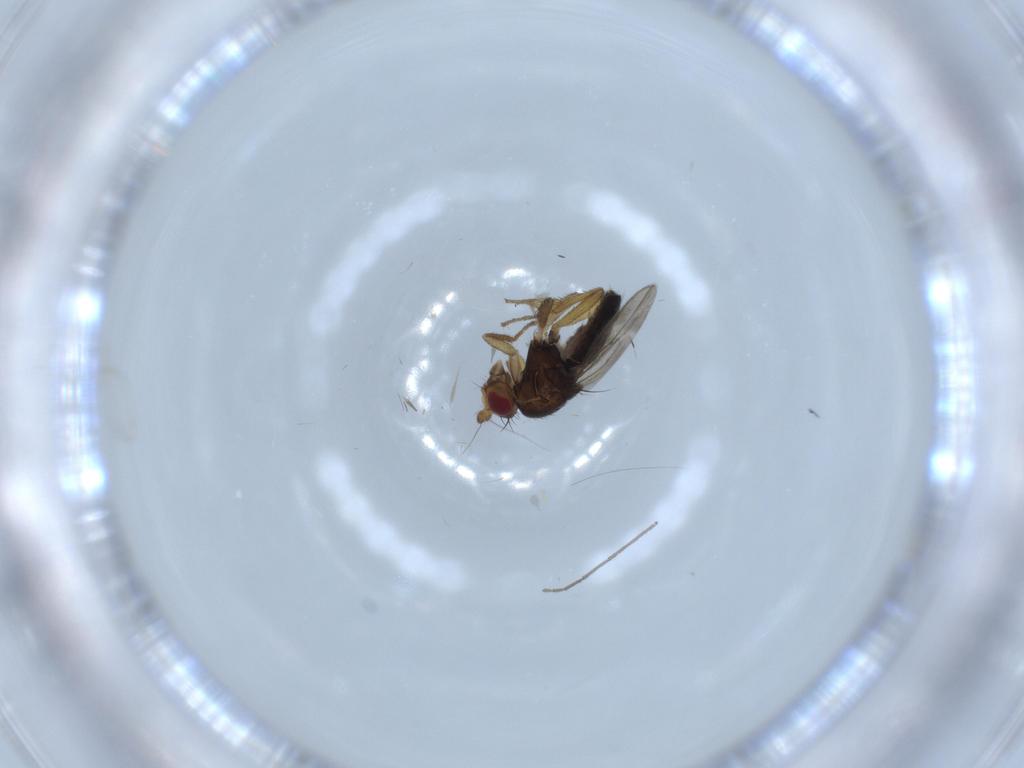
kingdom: Animalia
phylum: Arthropoda
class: Insecta
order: Diptera
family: Sphaeroceridae
